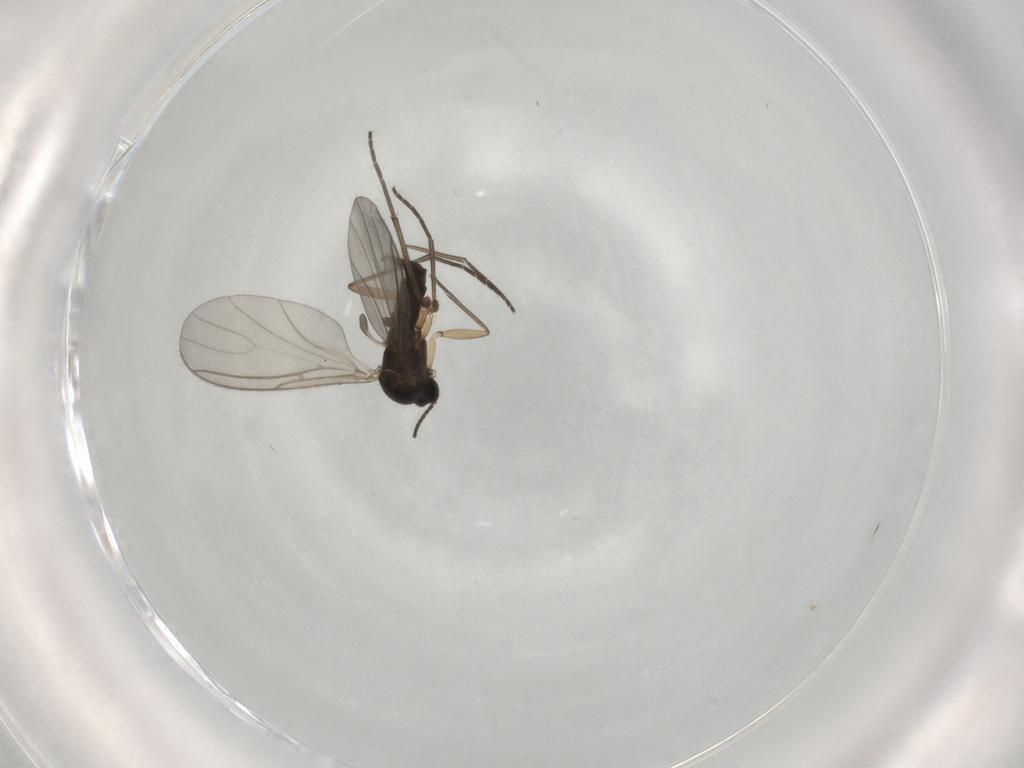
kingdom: Animalia
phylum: Arthropoda
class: Insecta
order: Diptera
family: Sciaridae
